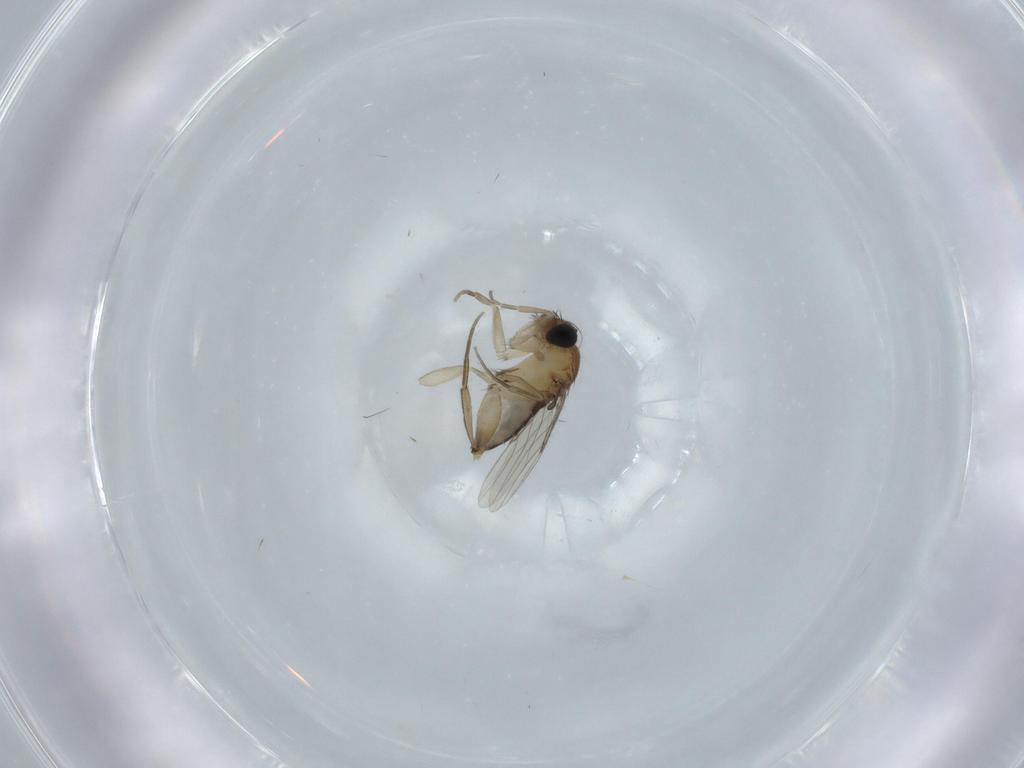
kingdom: Animalia
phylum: Arthropoda
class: Insecta
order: Diptera
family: Phoridae
